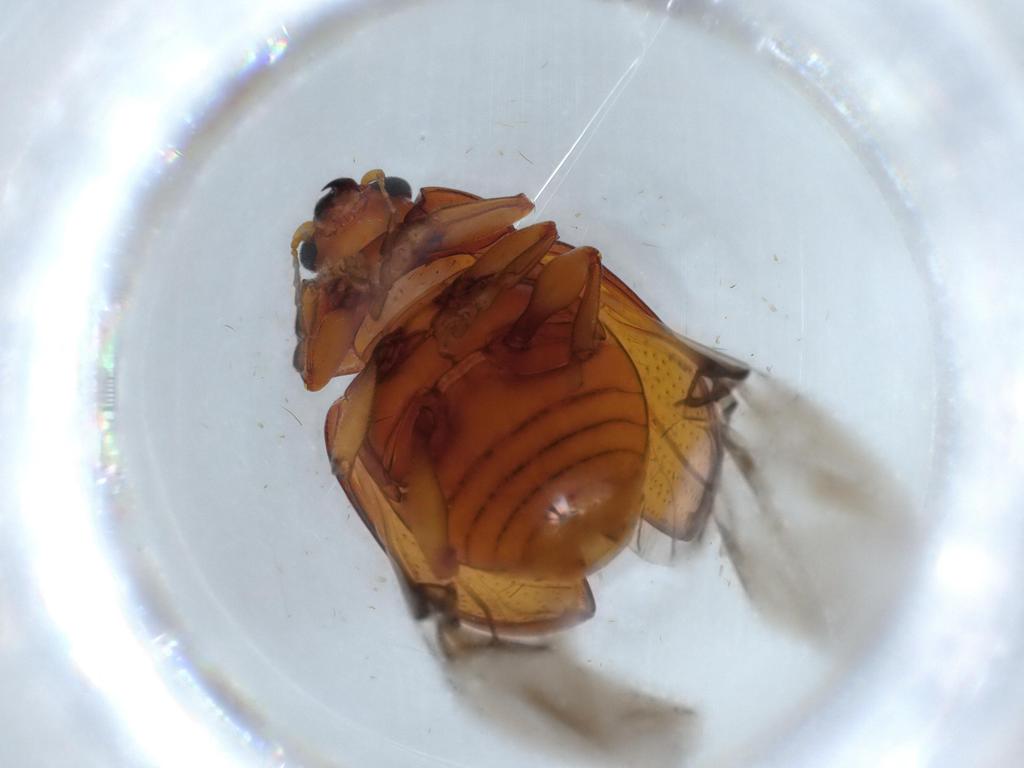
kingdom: Animalia
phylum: Arthropoda
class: Insecta
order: Coleoptera
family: Chrysomelidae
